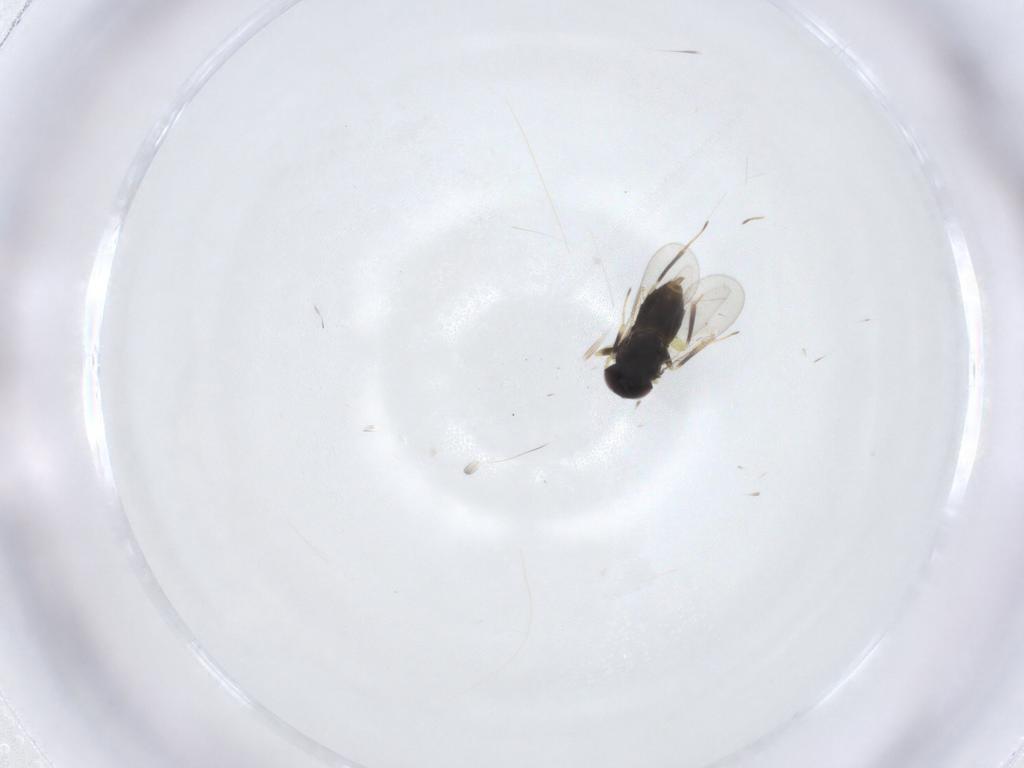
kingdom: Animalia
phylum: Arthropoda
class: Insecta
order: Hymenoptera
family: Aphelinidae
